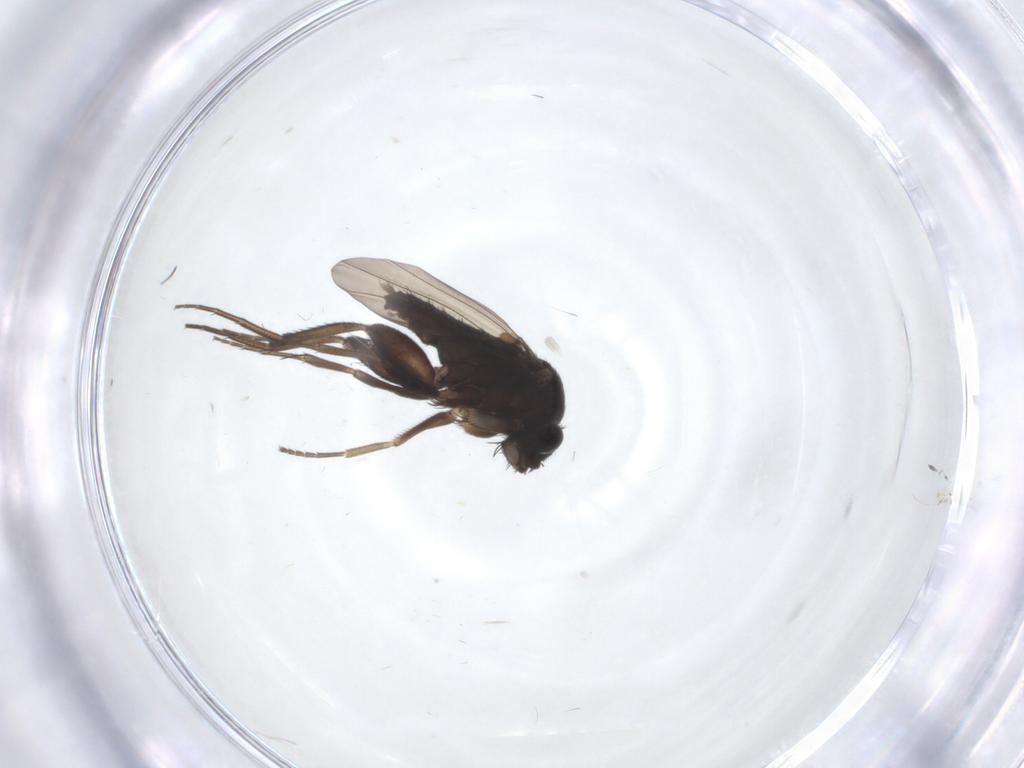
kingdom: Animalia
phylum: Arthropoda
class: Insecta
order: Diptera
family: Phoridae
